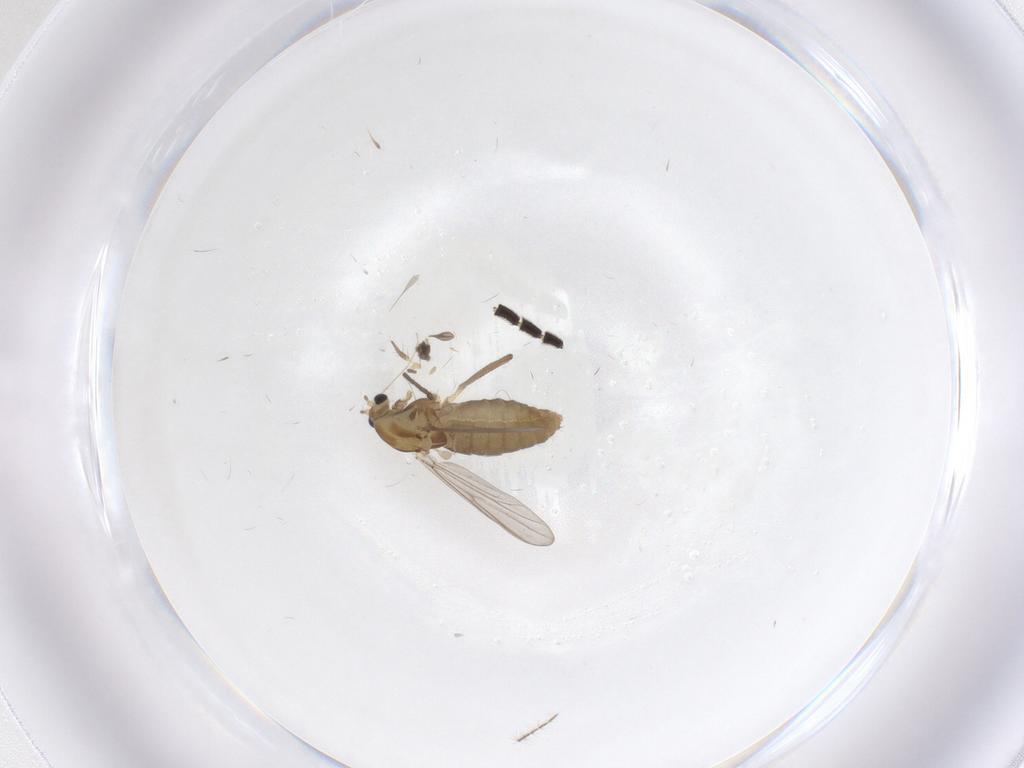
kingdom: Animalia
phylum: Arthropoda
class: Insecta
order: Diptera
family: Chironomidae
